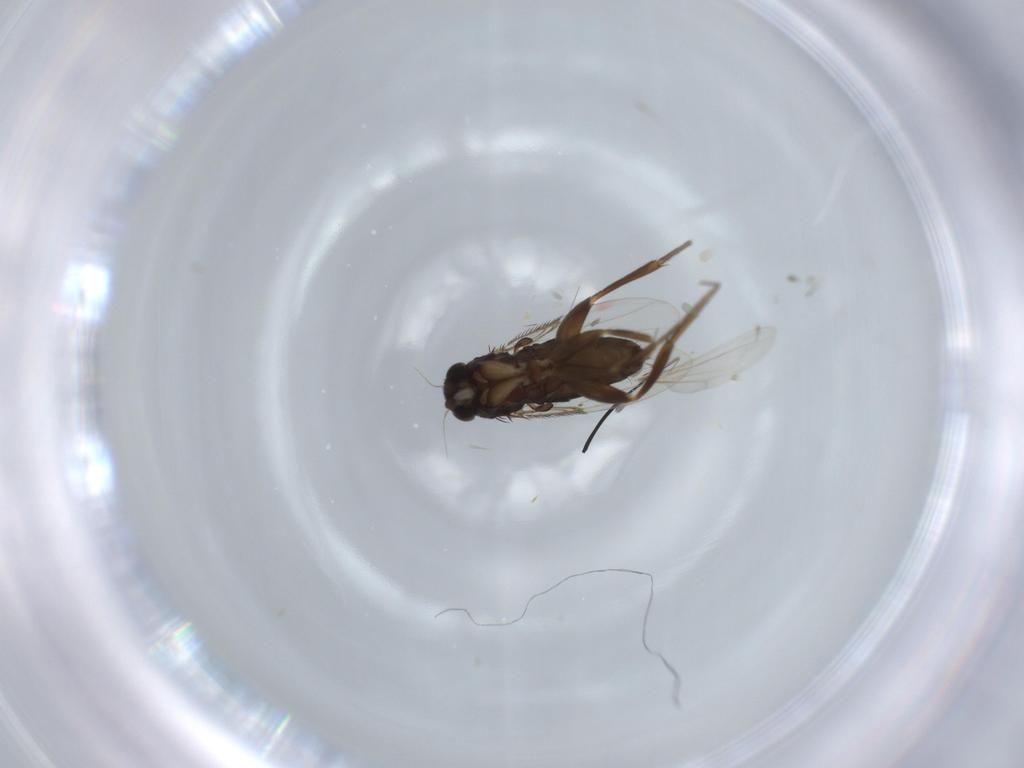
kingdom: Animalia
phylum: Arthropoda
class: Insecta
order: Diptera
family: Phoridae
